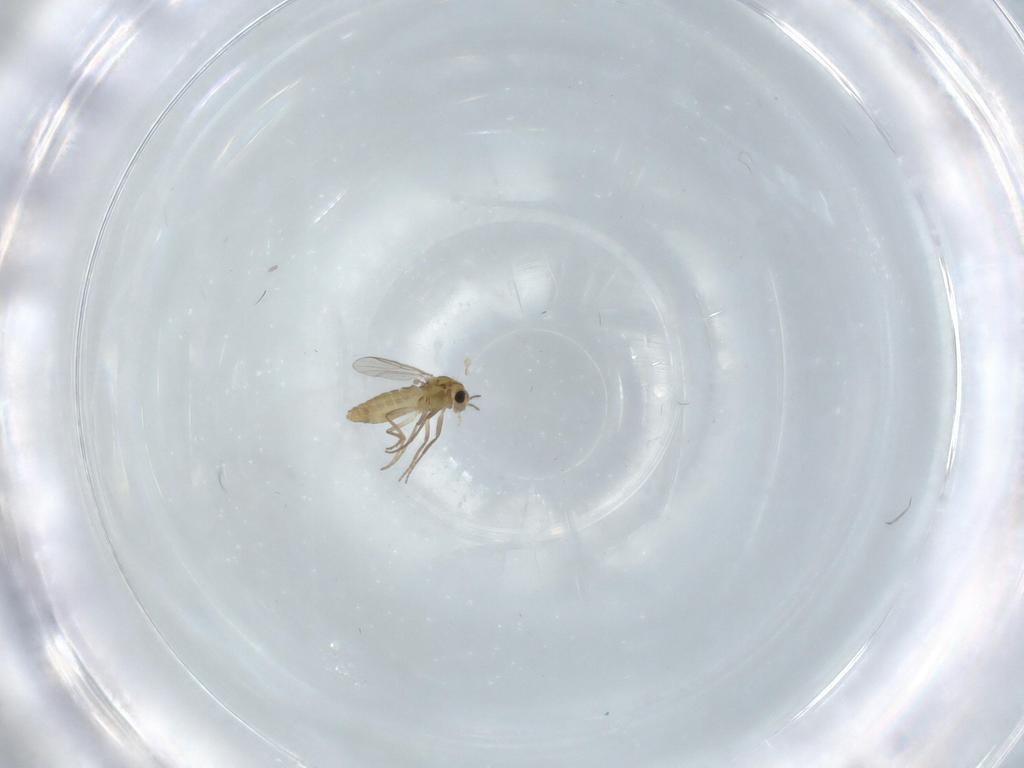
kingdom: Animalia
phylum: Arthropoda
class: Insecta
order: Diptera
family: Chironomidae
